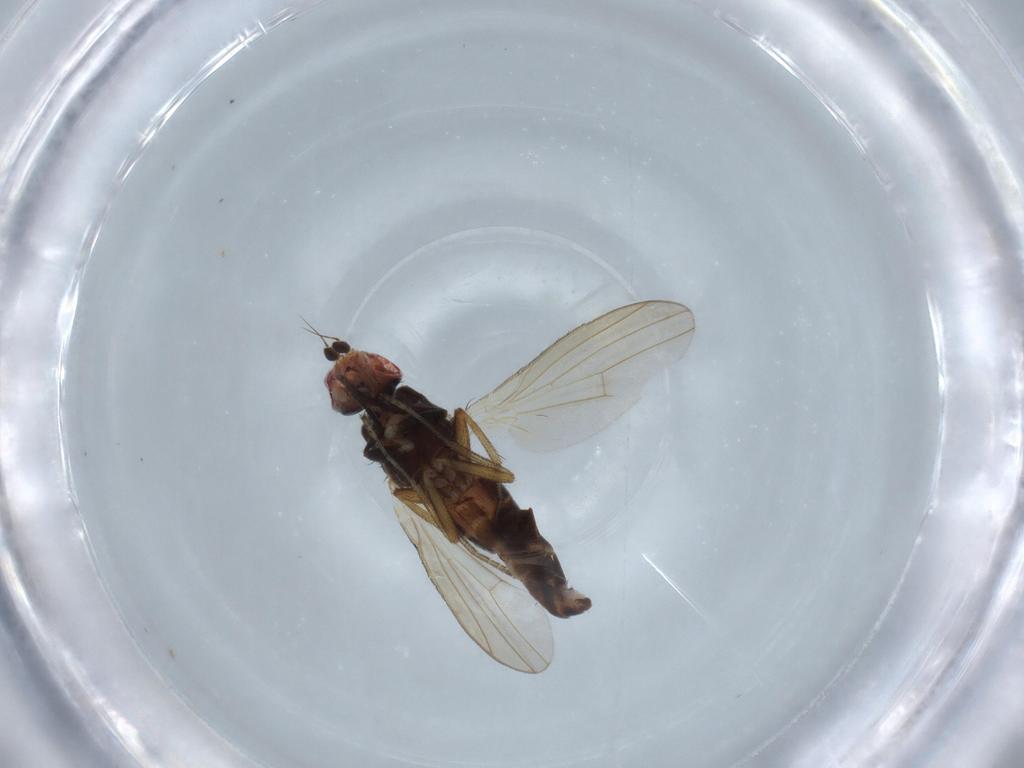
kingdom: Animalia
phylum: Arthropoda
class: Insecta
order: Diptera
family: Heleomyzidae
